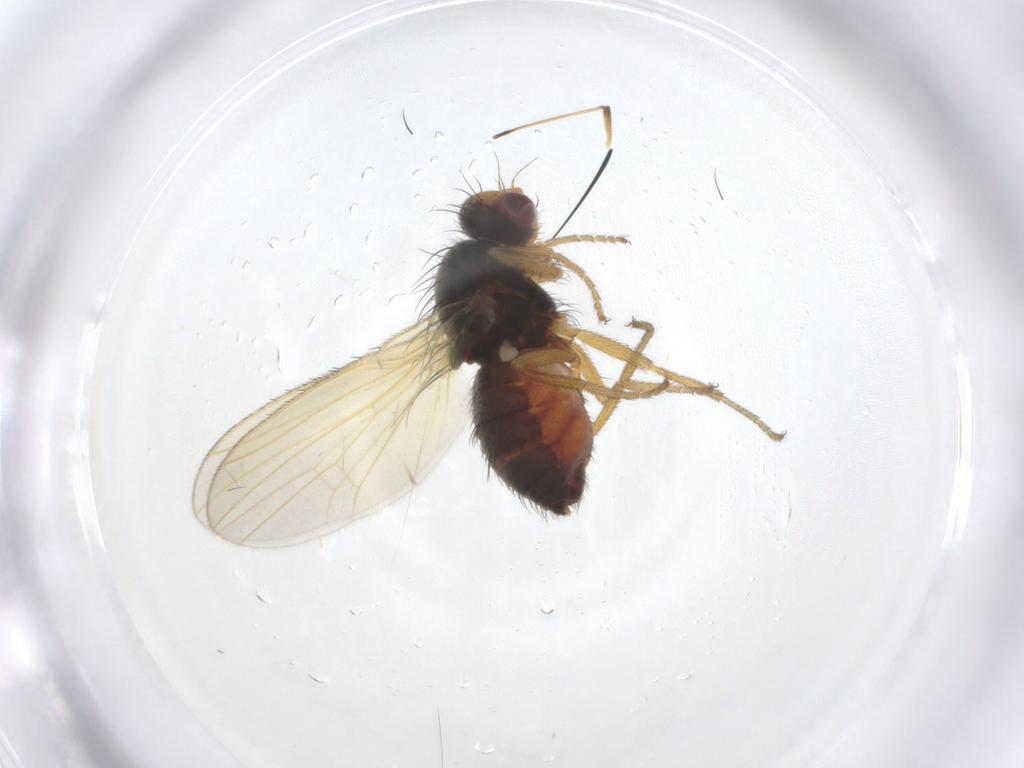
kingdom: Animalia
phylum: Arthropoda
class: Insecta
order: Diptera
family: Heleomyzidae
